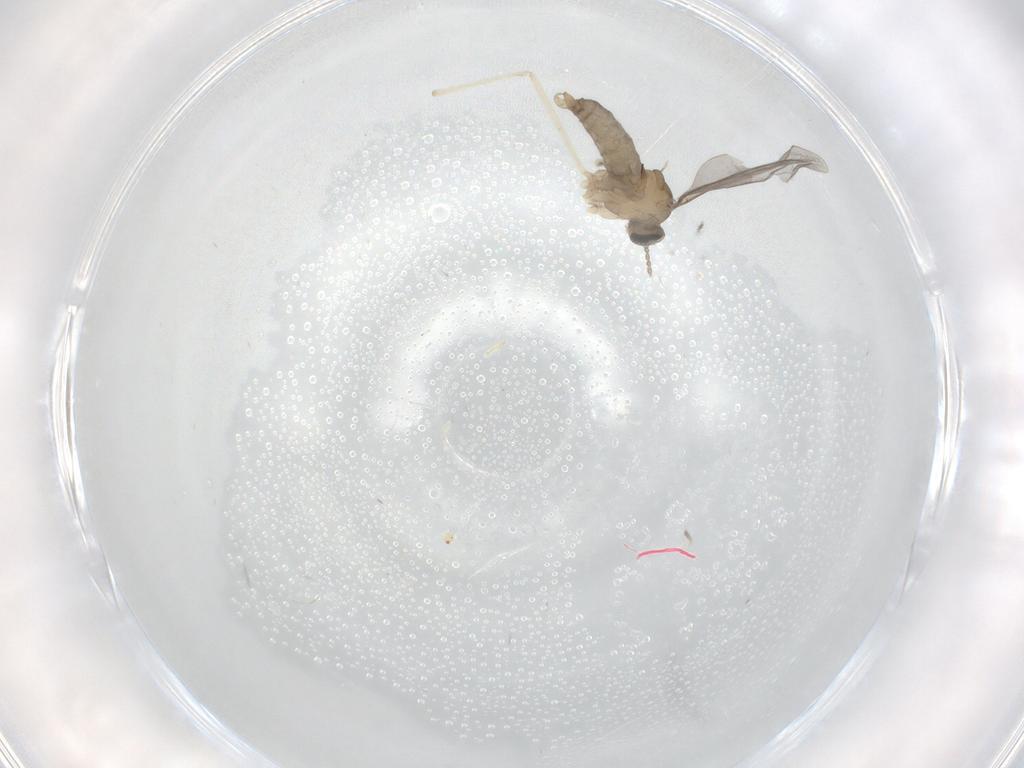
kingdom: Animalia
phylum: Arthropoda
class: Insecta
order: Diptera
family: Cecidomyiidae
